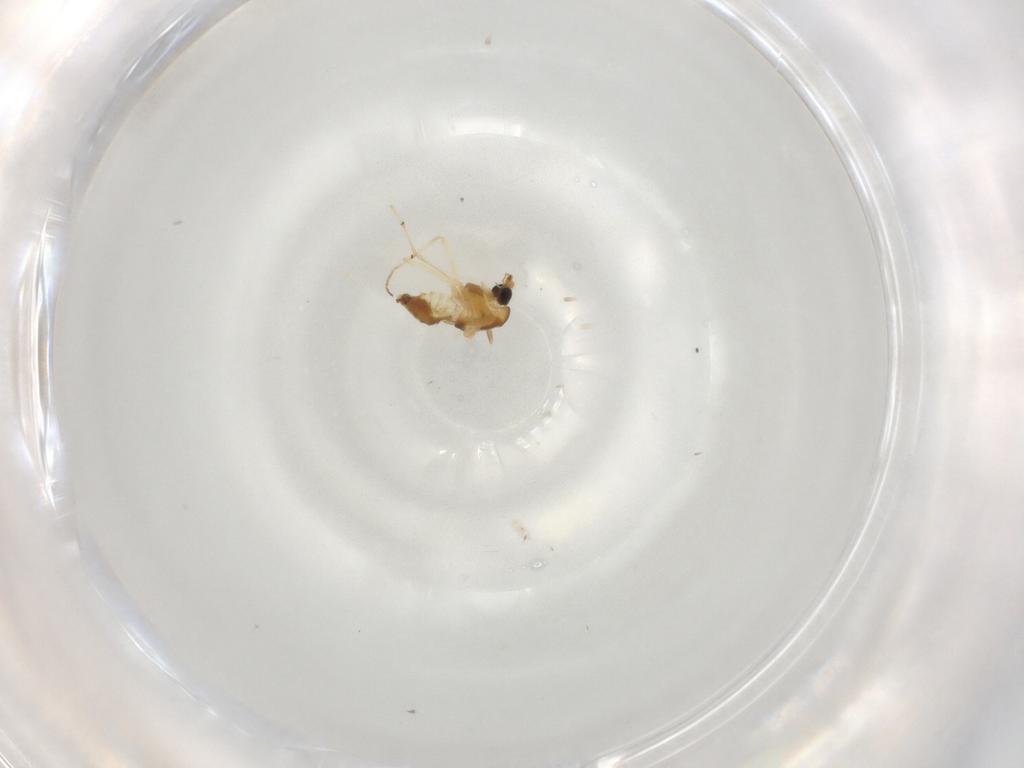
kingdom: Animalia
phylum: Arthropoda
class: Insecta
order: Diptera
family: Chironomidae
